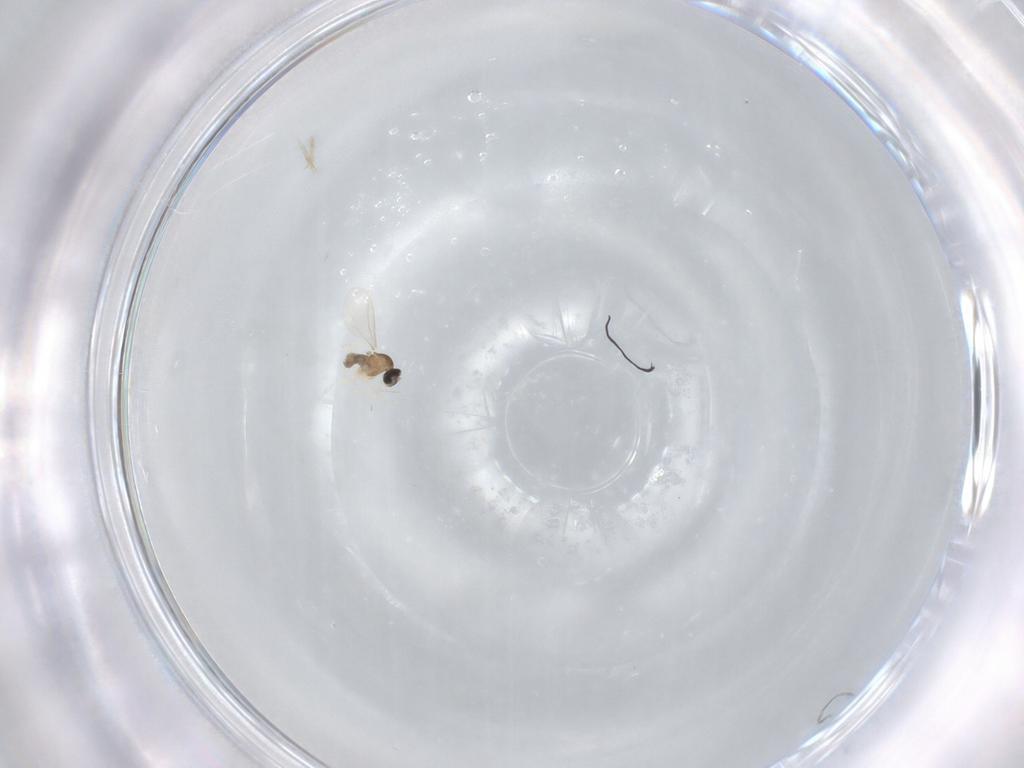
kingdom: Animalia
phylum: Arthropoda
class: Insecta
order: Diptera
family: Cecidomyiidae
